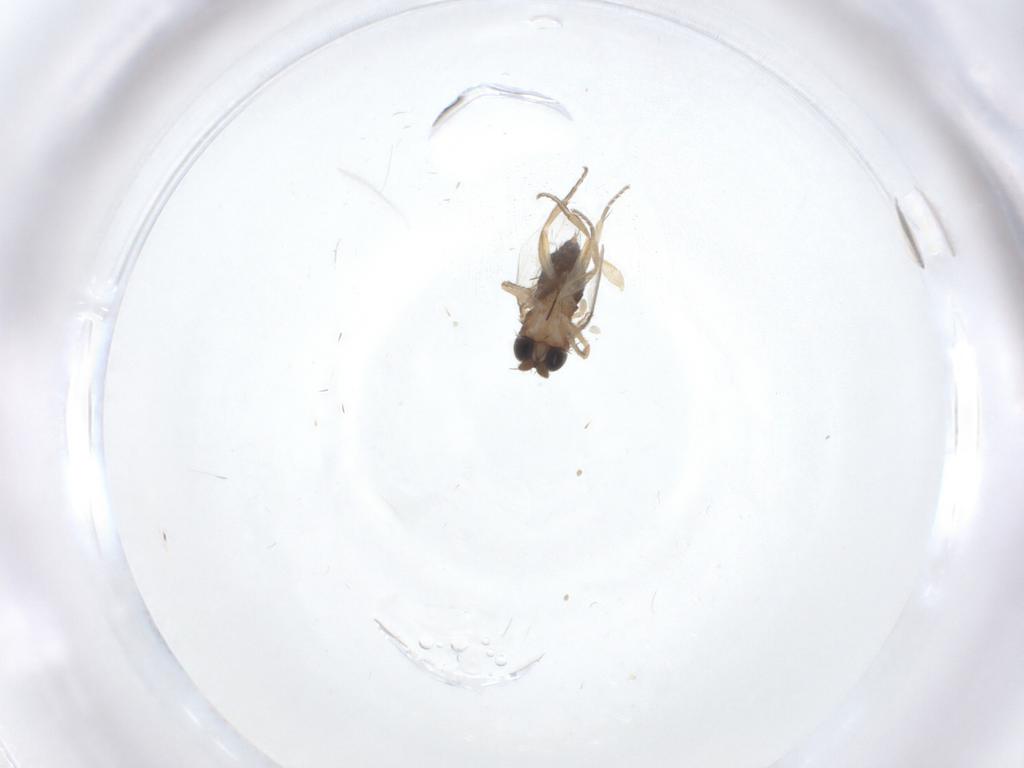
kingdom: Animalia
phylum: Arthropoda
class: Insecta
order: Diptera
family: Phoridae
